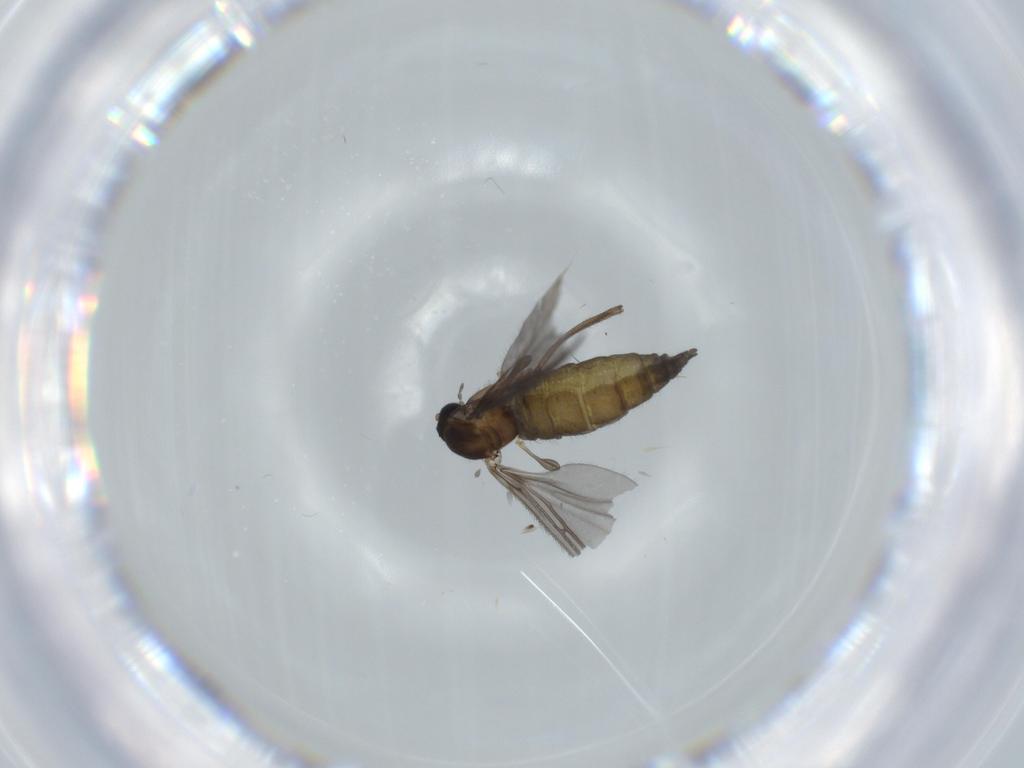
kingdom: Animalia
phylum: Arthropoda
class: Insecta
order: Diptera
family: Sciaridae
